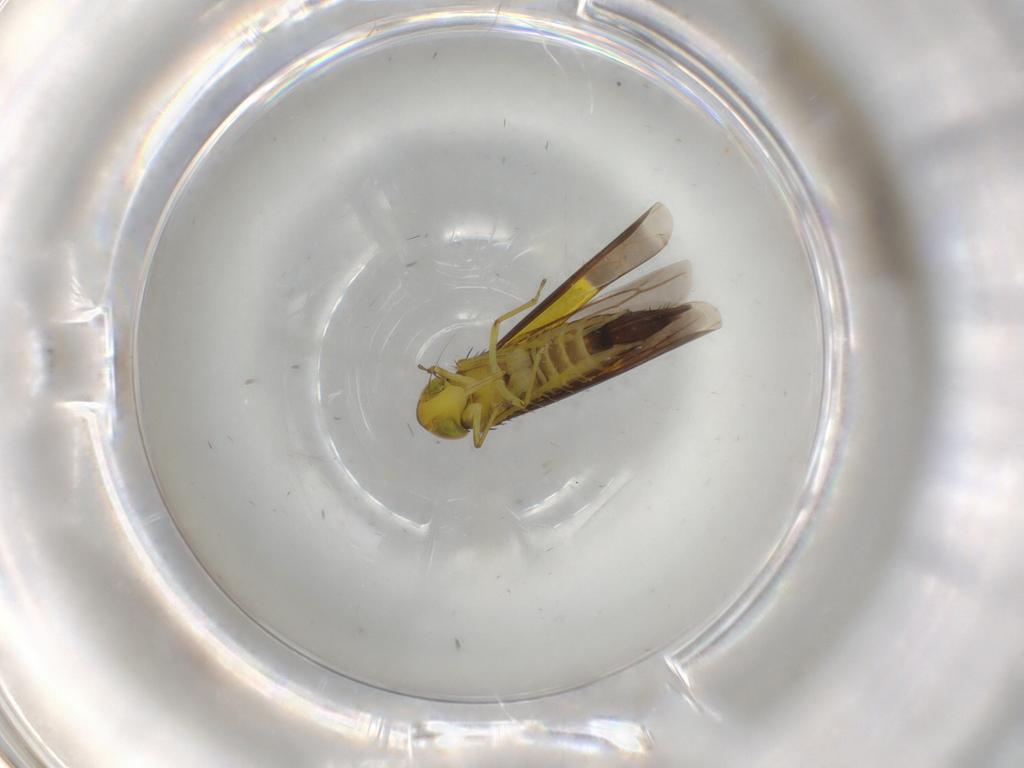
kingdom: Animalia
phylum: Arthropoda
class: Insecta
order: Hemiptera
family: Cicadellidae
